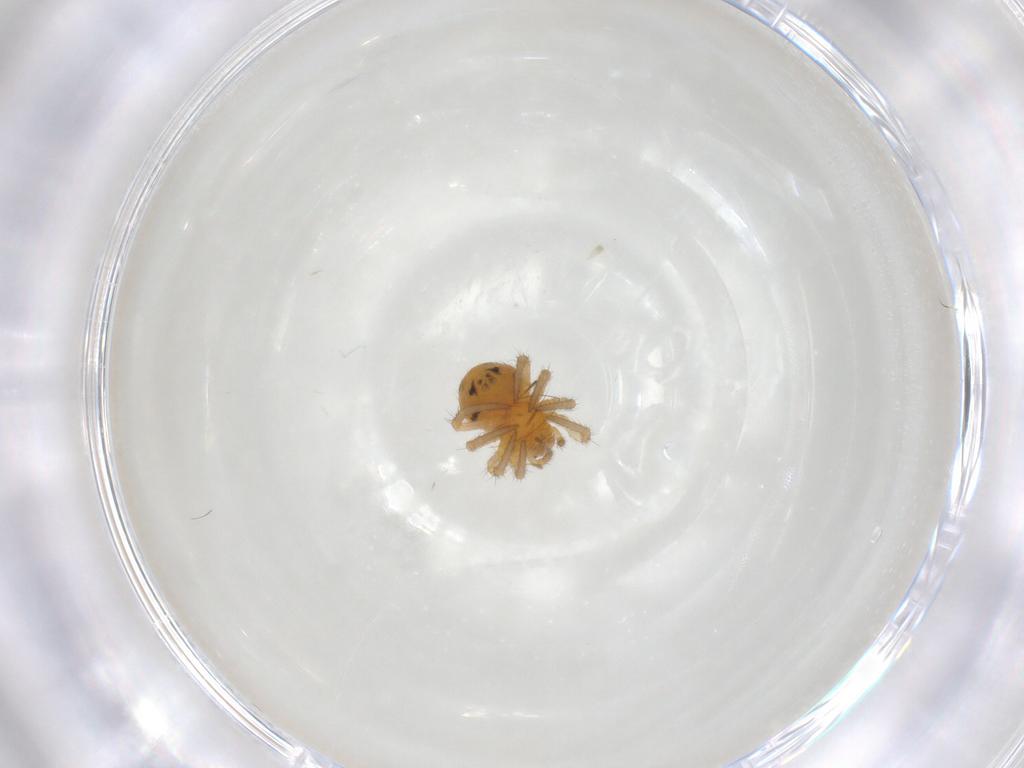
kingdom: Animalia
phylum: Arthropoda
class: Arachnida
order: Araneae
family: Araneidae
